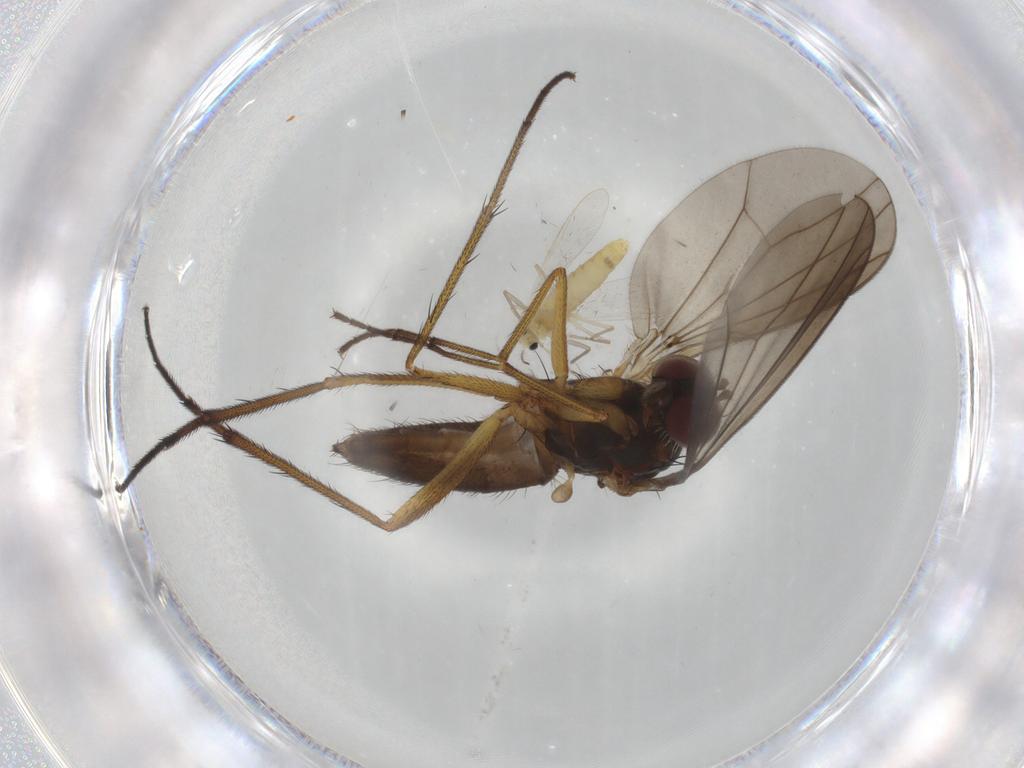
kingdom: Animalia
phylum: Arthropoda
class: Insecta
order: Diptera
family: Chironomidae
